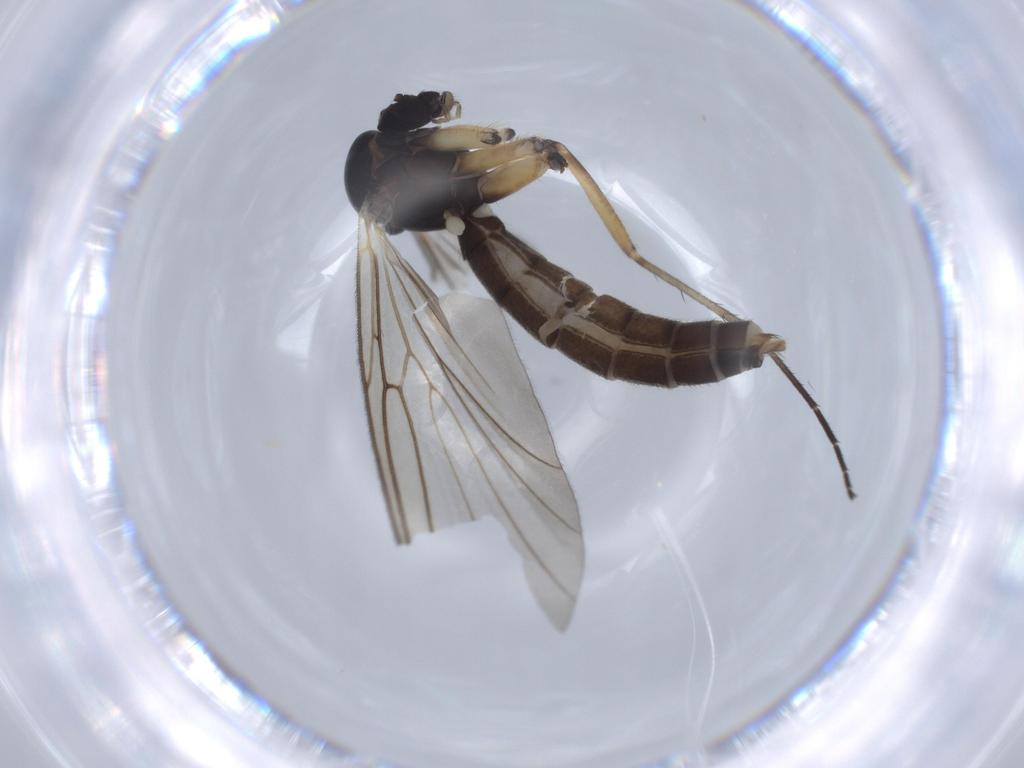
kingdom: Animalia
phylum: Arthropoda
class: Insecta
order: Diptera
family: Mycetophilidae
